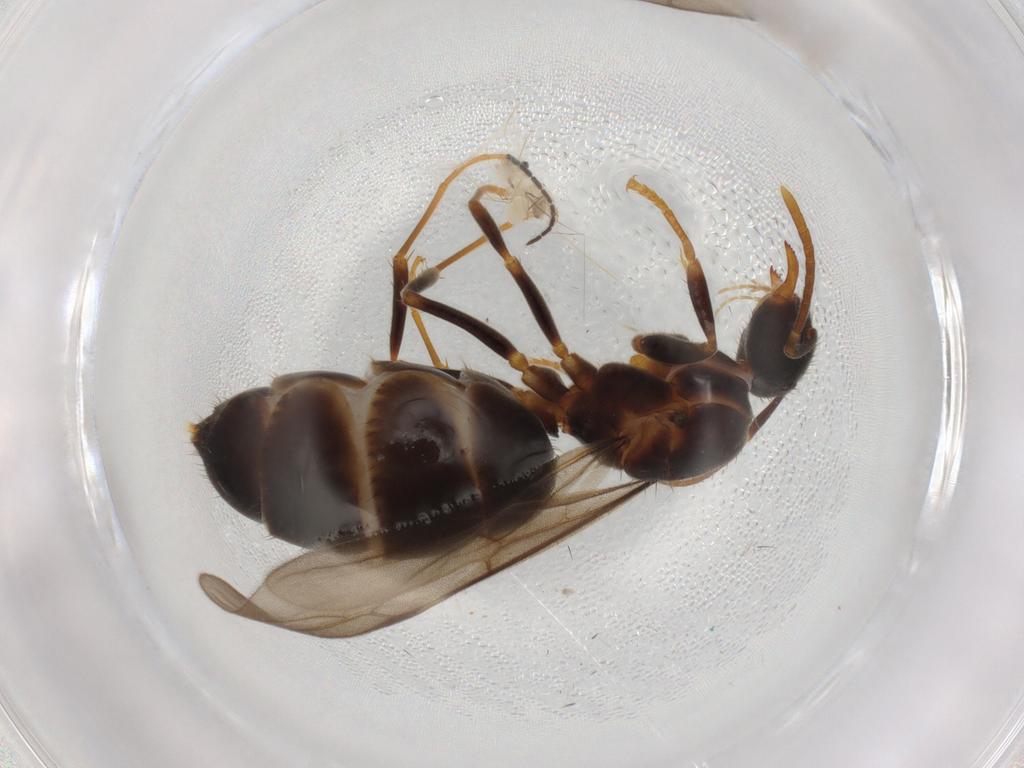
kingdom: Animalia
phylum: Arthropoda
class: Insecta
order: Hymenoptera
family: Formicidae
